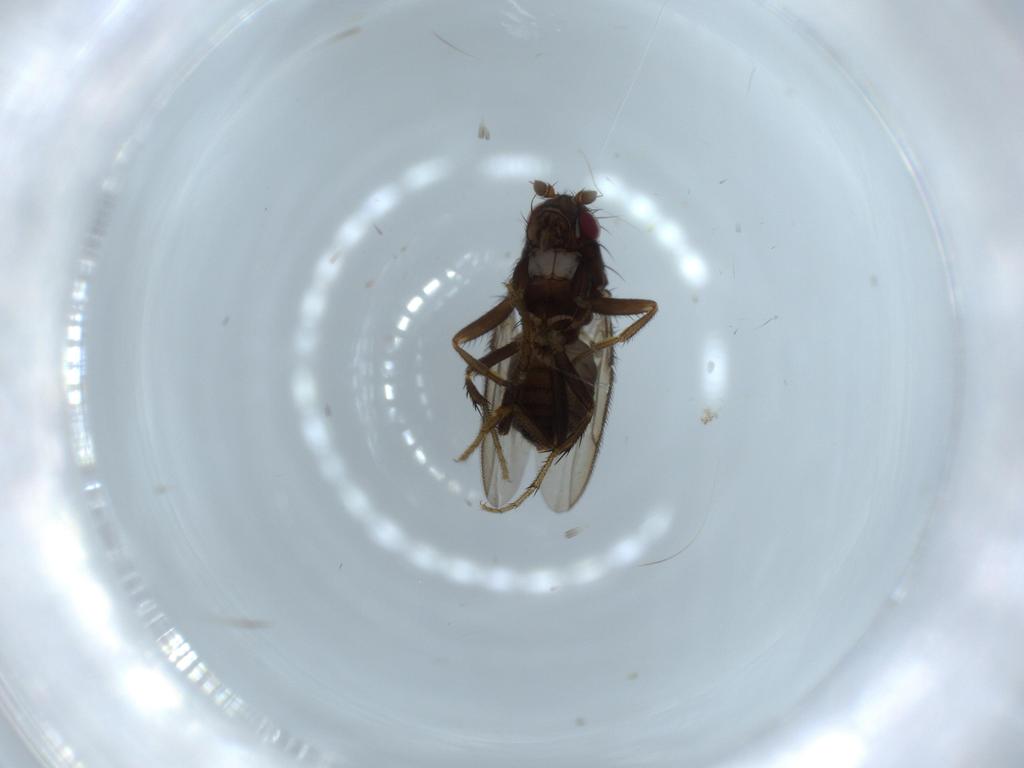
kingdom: Animalia
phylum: Arthropoda
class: Insecta
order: Diptera
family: Sphaeroceridae
